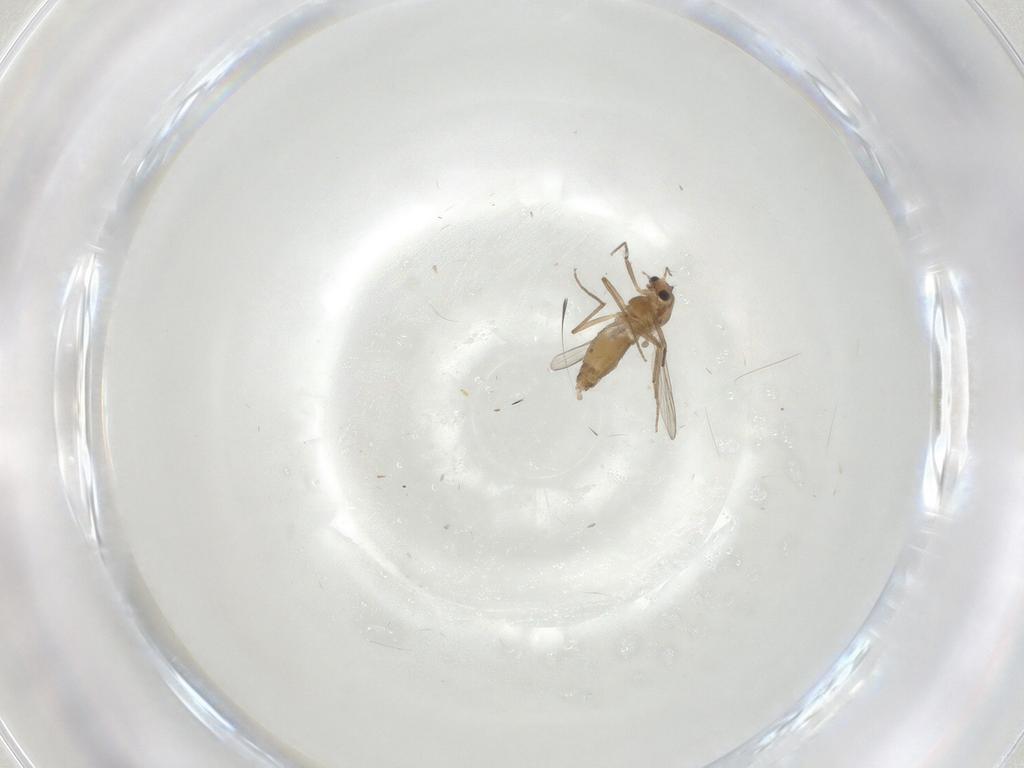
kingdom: Animalia
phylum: Arthropoda
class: Insecta
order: Diptera
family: Chironomidae
